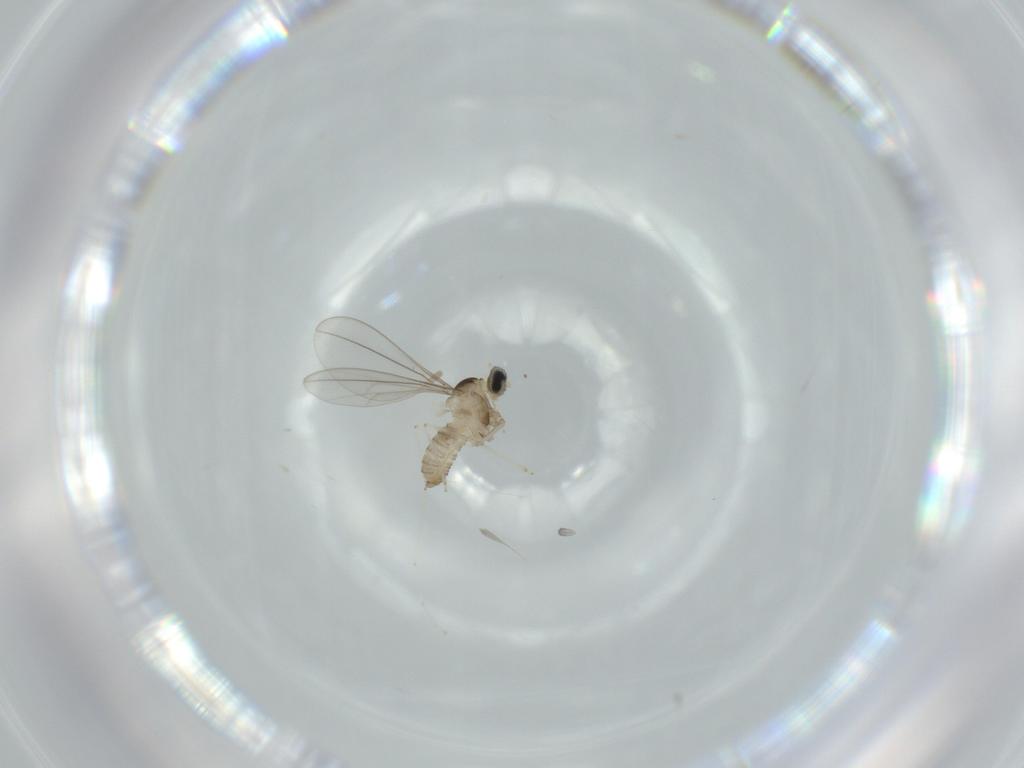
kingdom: Animalia
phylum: Arthropoda
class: Insecta
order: Diptera
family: Cecidomyiidae
